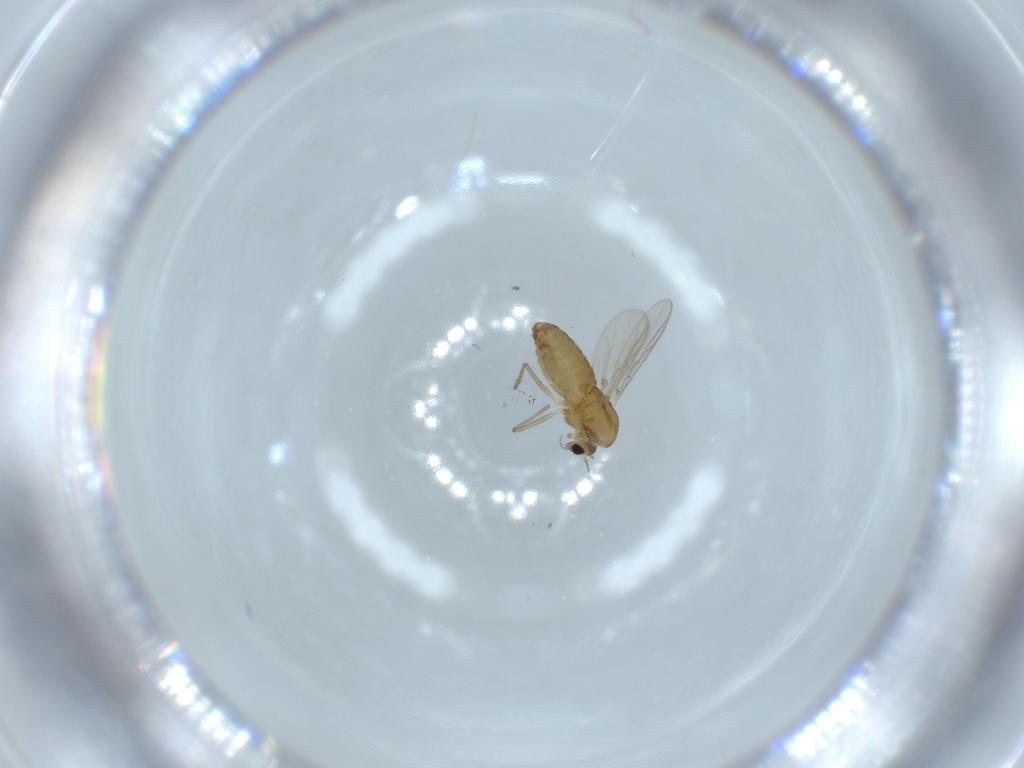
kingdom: Animalia
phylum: Arthropoda
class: Insecta
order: Diptera
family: Chironomidae
